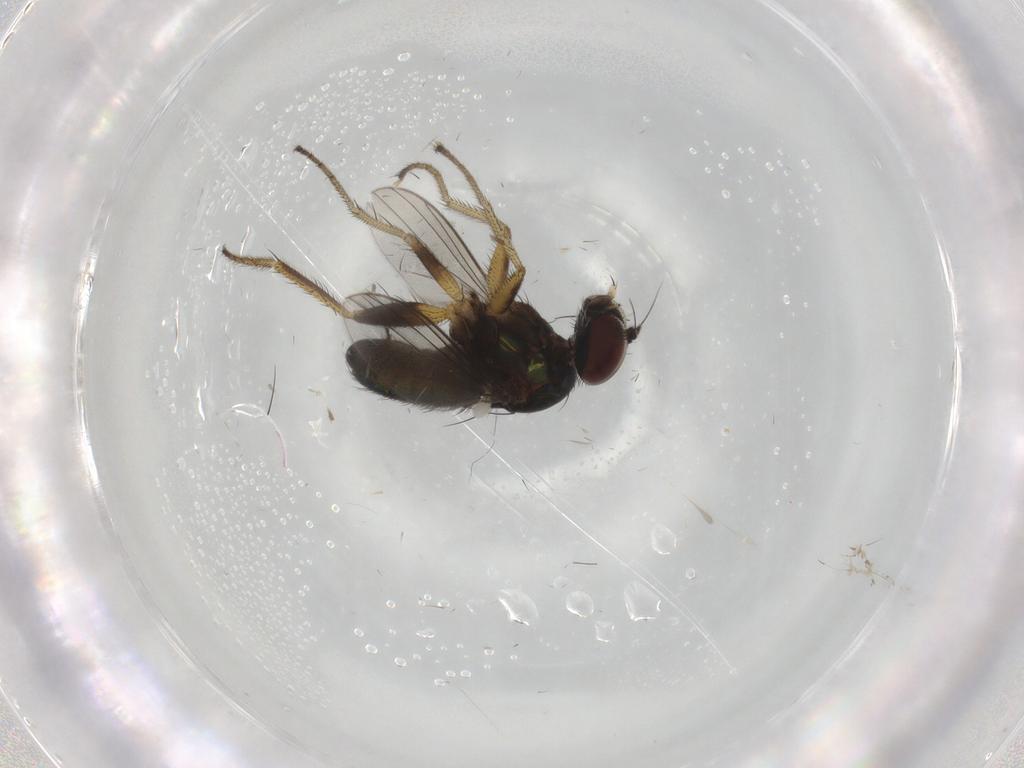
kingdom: Animalia
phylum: Arthropoda
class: Insecta
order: Diptera
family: Dolichopodidae
